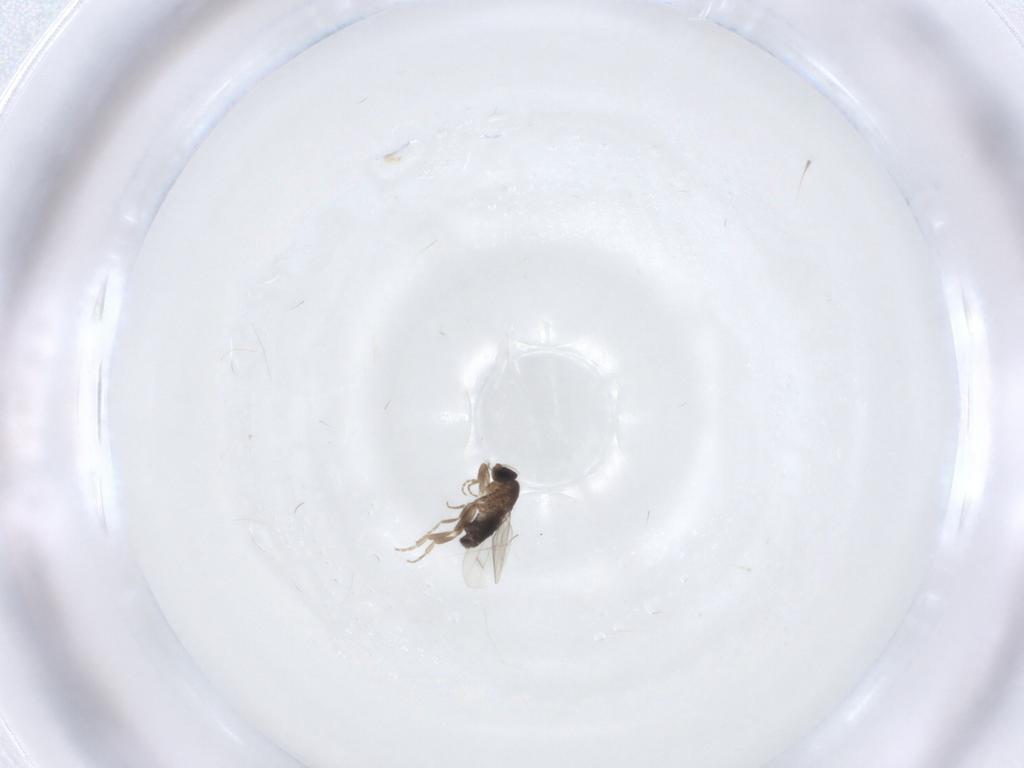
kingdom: Animalia
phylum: Arthropoda
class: Insecta
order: Diptera
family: Phoridae
